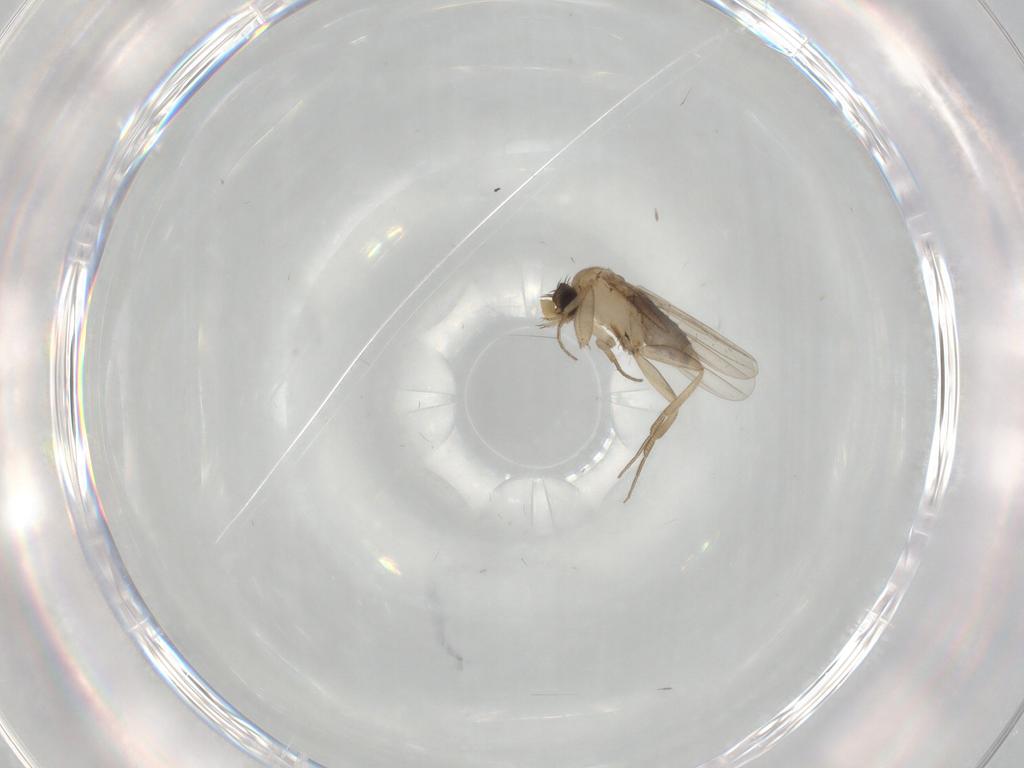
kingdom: Animalia
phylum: Arthropoda
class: Insecta
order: Diptera
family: Phoridae
